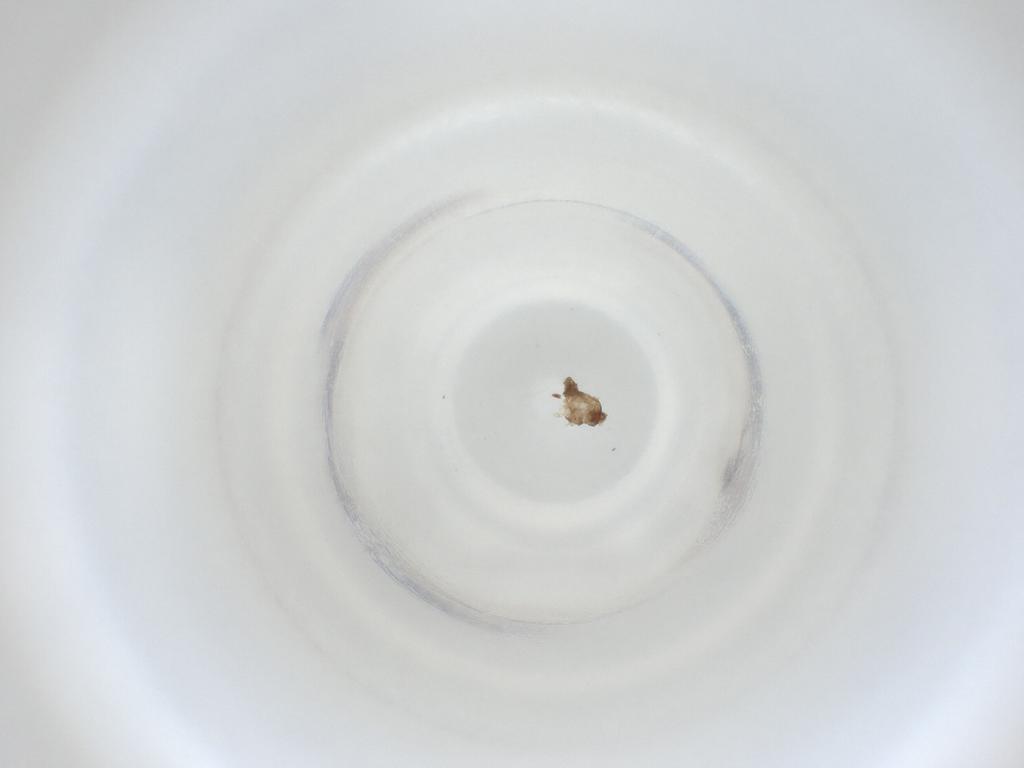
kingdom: Animalia
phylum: Arthropoda
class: Insecta
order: Diptera
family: Cecidomyiidae
